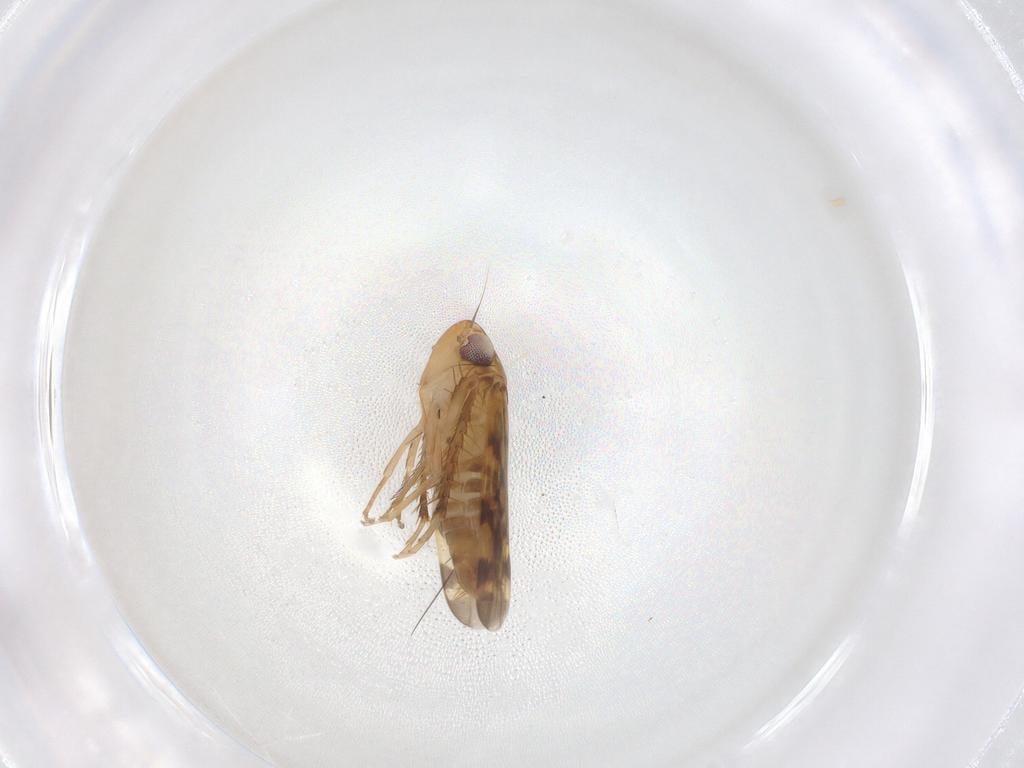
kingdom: Animalia
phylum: Arthropoda
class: Insecta
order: Hemiptera
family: Cicadellidae
